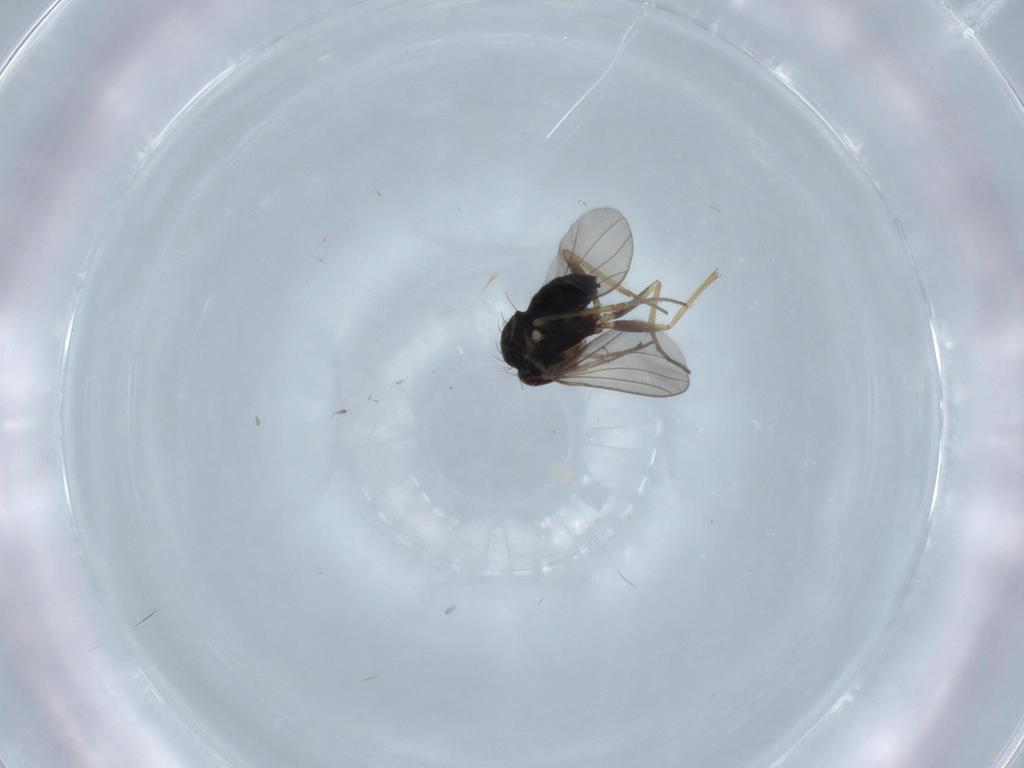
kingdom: Animalia
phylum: Arthropoda
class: Insecta
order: Diptera
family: Dolichopodidae
